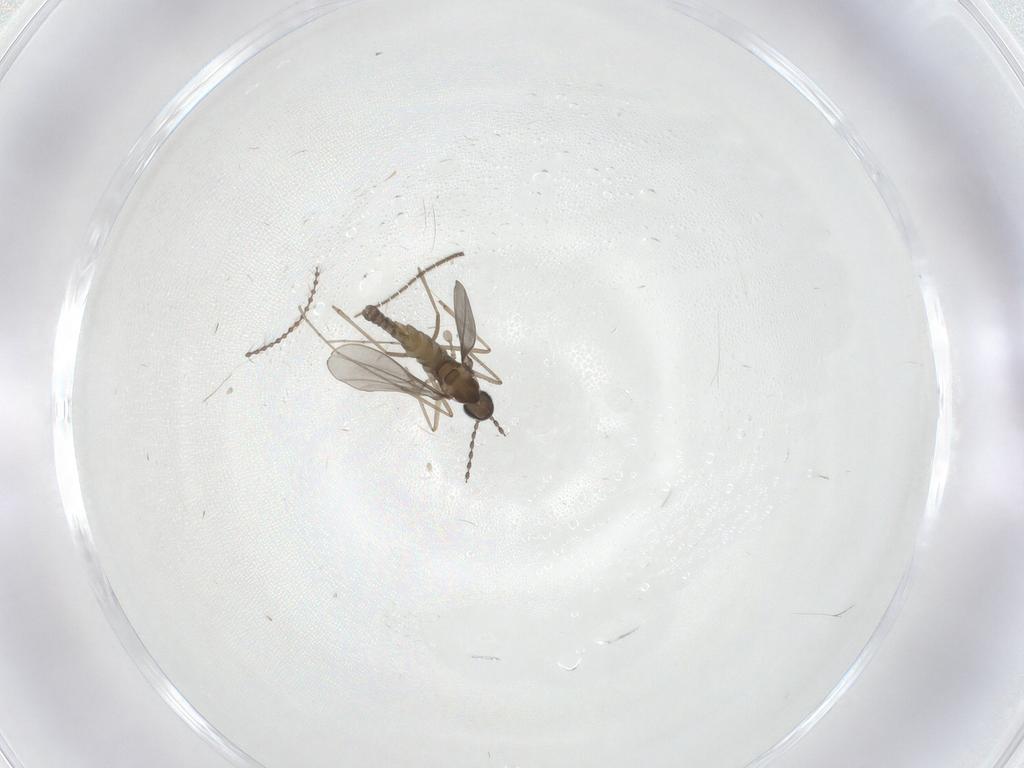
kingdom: Animalia
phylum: Arthropoda
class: Insecta
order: Diptera
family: Sciaridae
